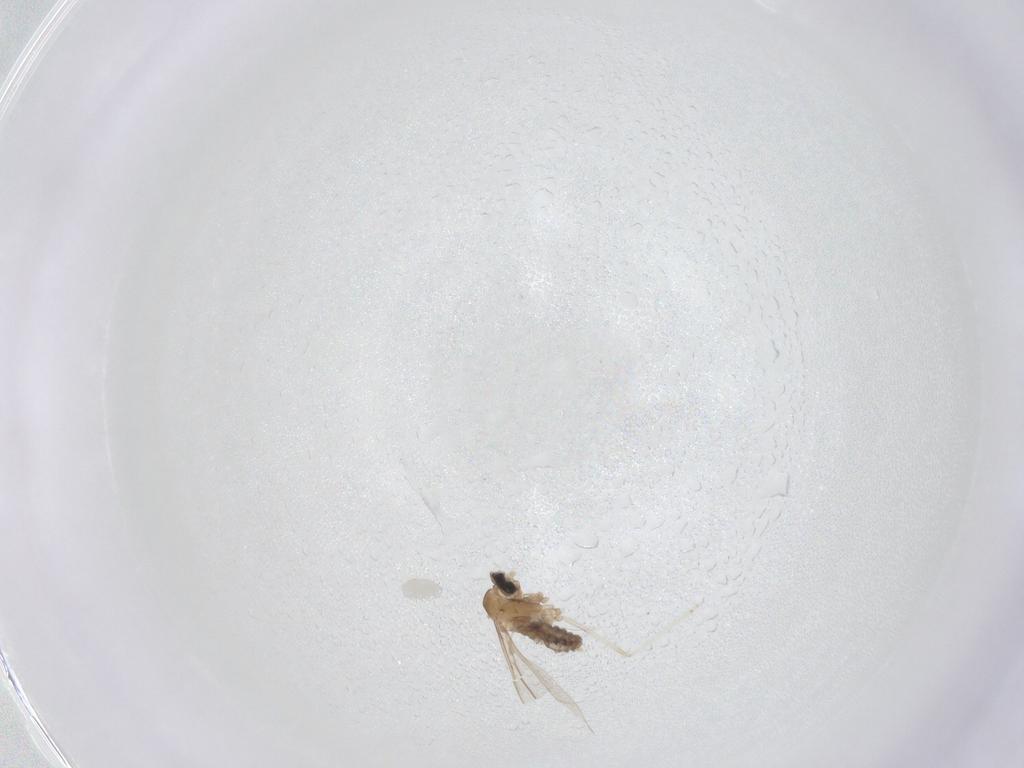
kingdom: Animalia
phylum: Arthropoda
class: Insecta
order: Diptera
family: Cecidomyiidae
